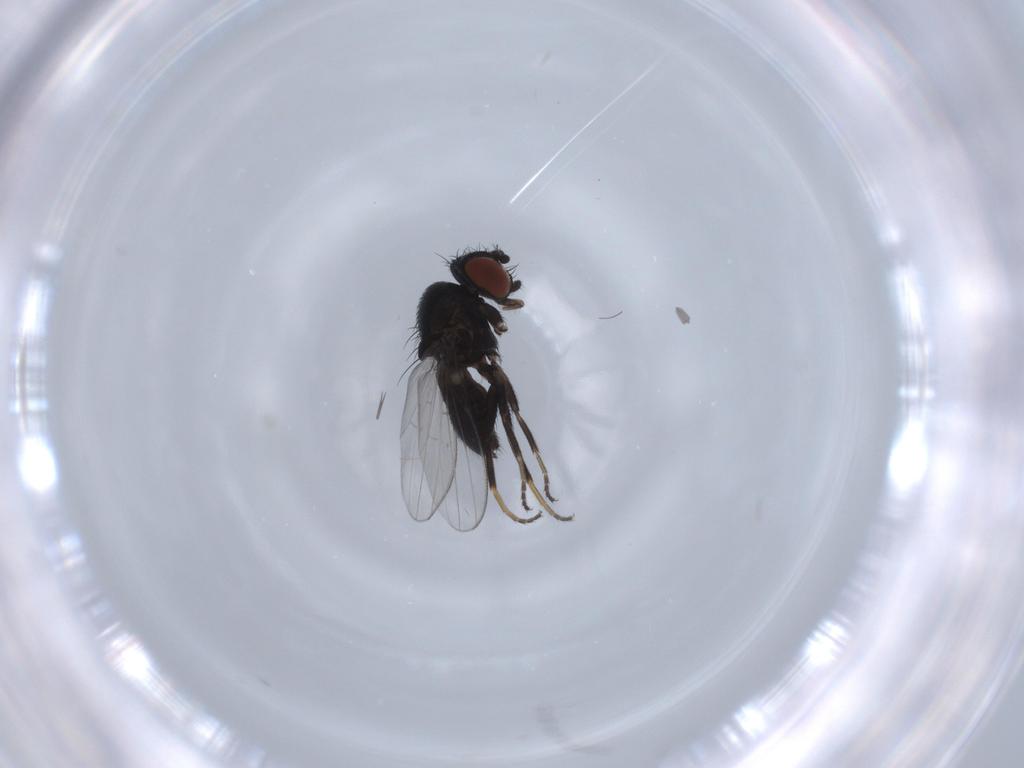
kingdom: Animalia
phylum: Arthropoda
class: Insecta
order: Diptera
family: Milichiidae
